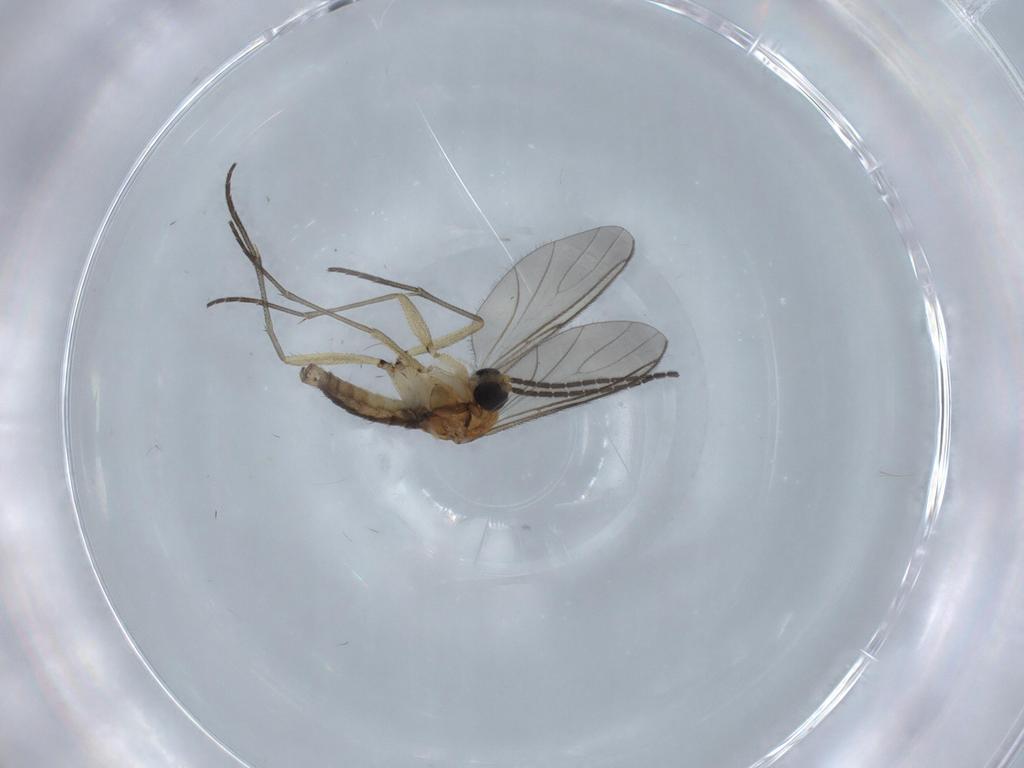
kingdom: Animalia
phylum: Arthropoda
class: Insecta
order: Diptera
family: Sciaridae
